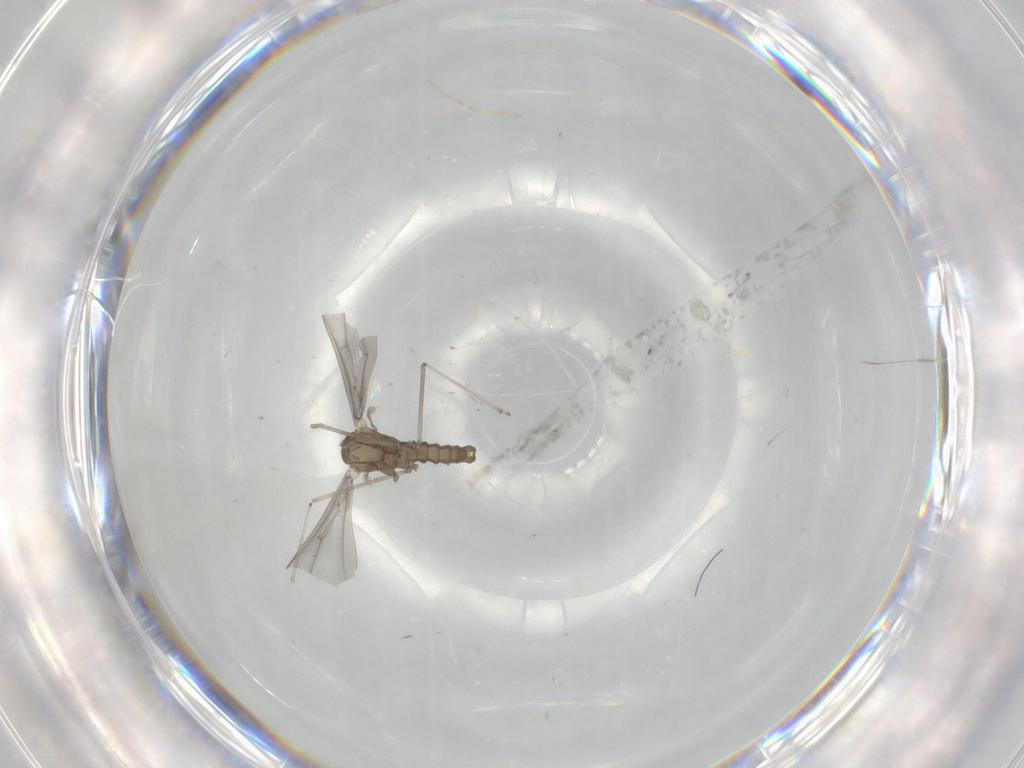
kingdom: Animalia
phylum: Arthropoda
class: Insecta
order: Diptera
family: Cecidomyiidae
